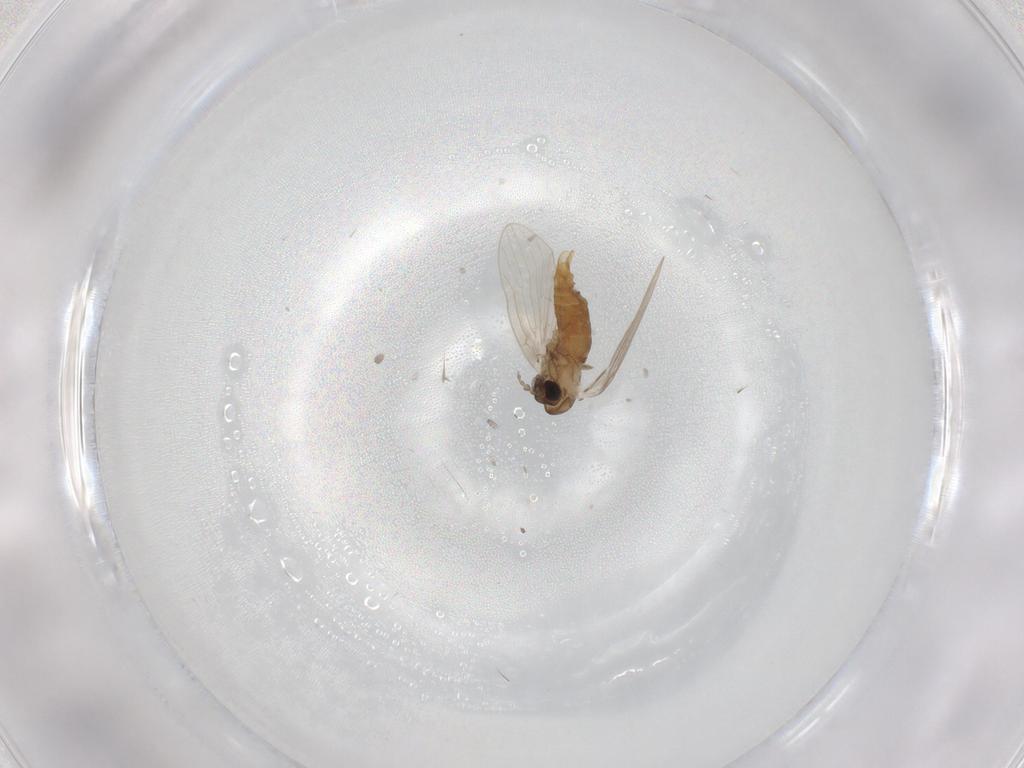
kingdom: Animalia
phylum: Arthropoda
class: Insecta
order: Diptera
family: Psychodidae
